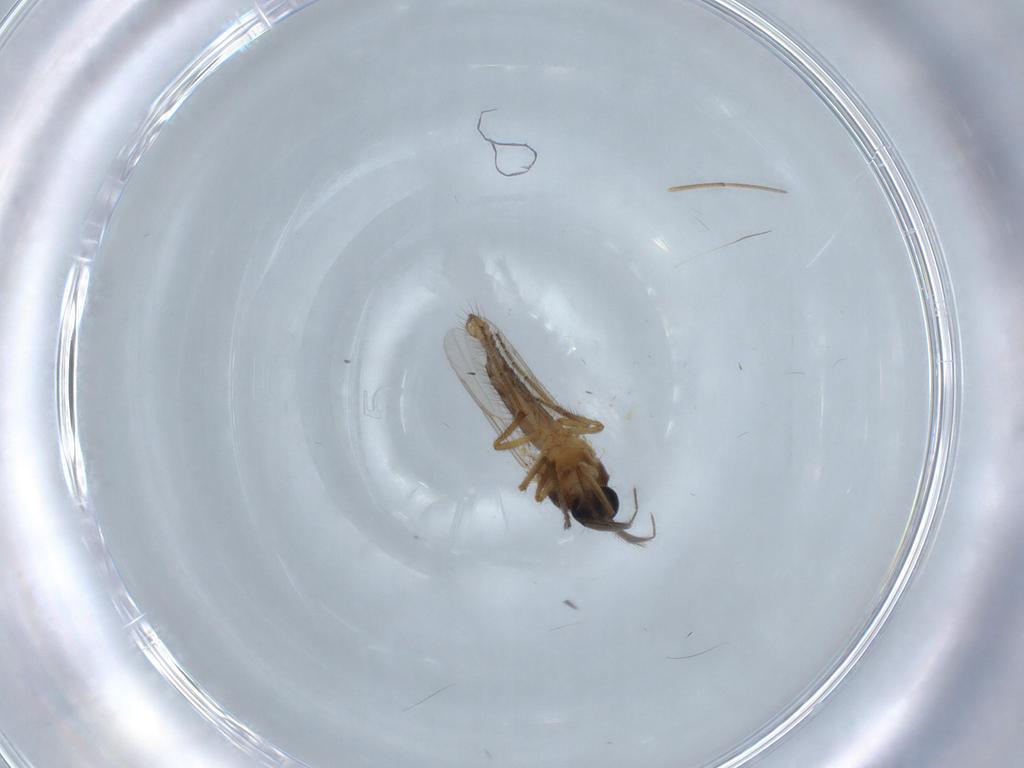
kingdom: Animalia
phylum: Arthropoda
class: Insecta
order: Diptera
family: Ceratopogonidae
